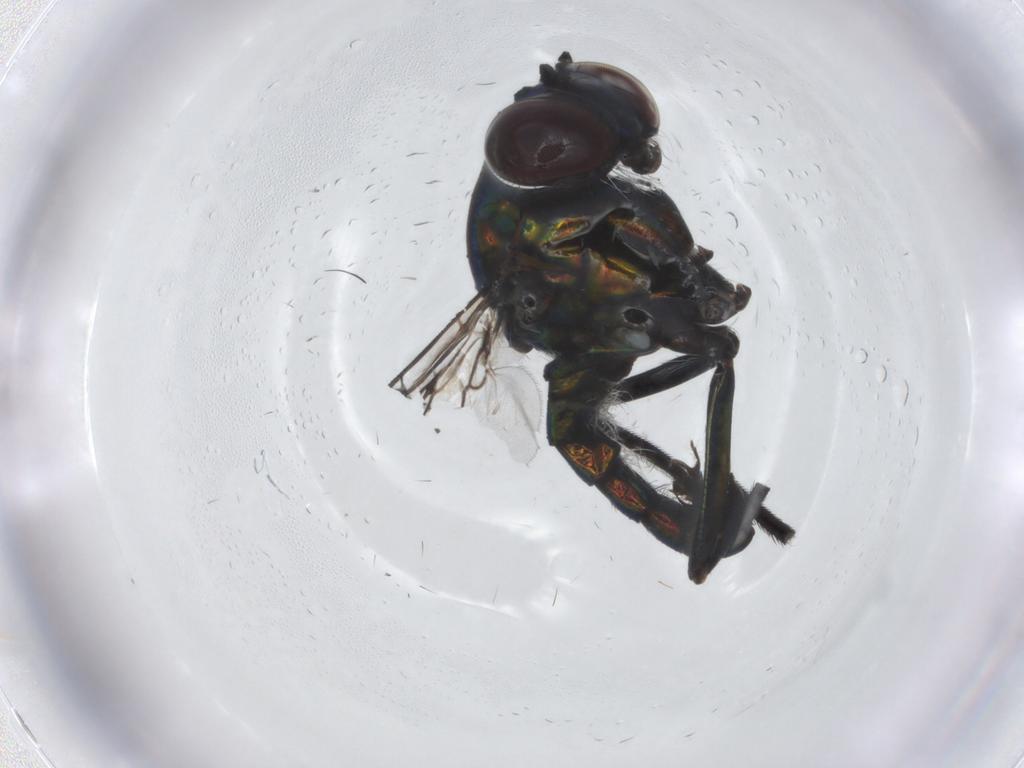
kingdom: Animalia
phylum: Arthropoda
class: Insecta
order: Diptera
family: Dolichopodidae
